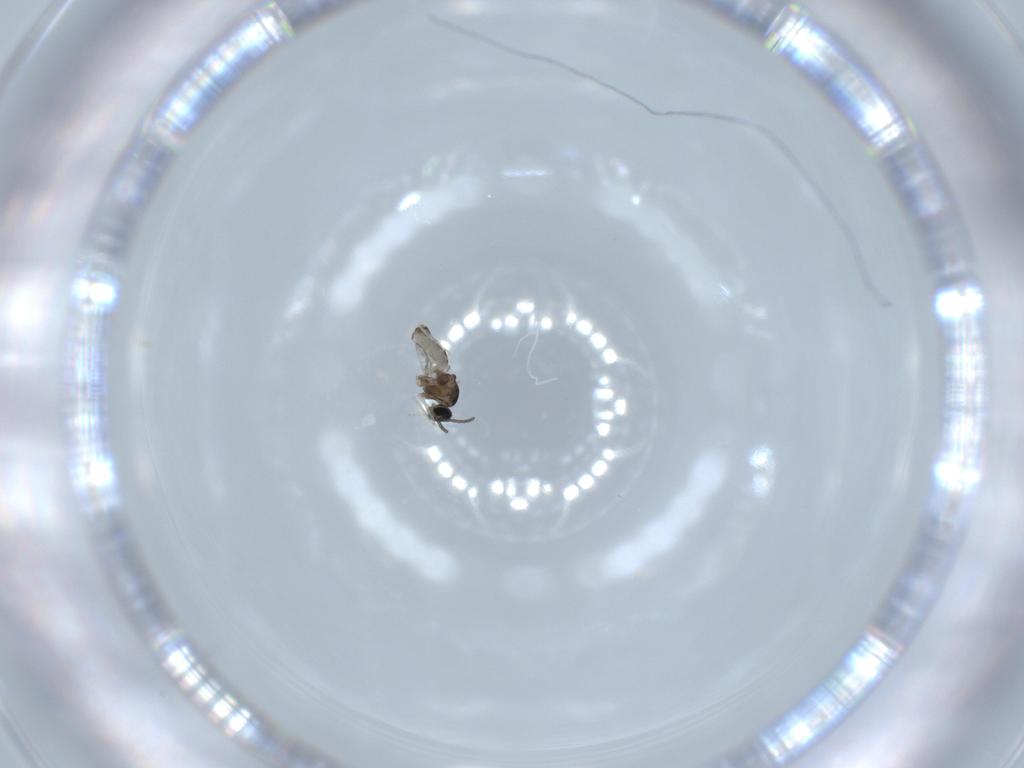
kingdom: Animalia
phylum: Arthropoda
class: Insecta
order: Diptera
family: Cecidomyiidae
